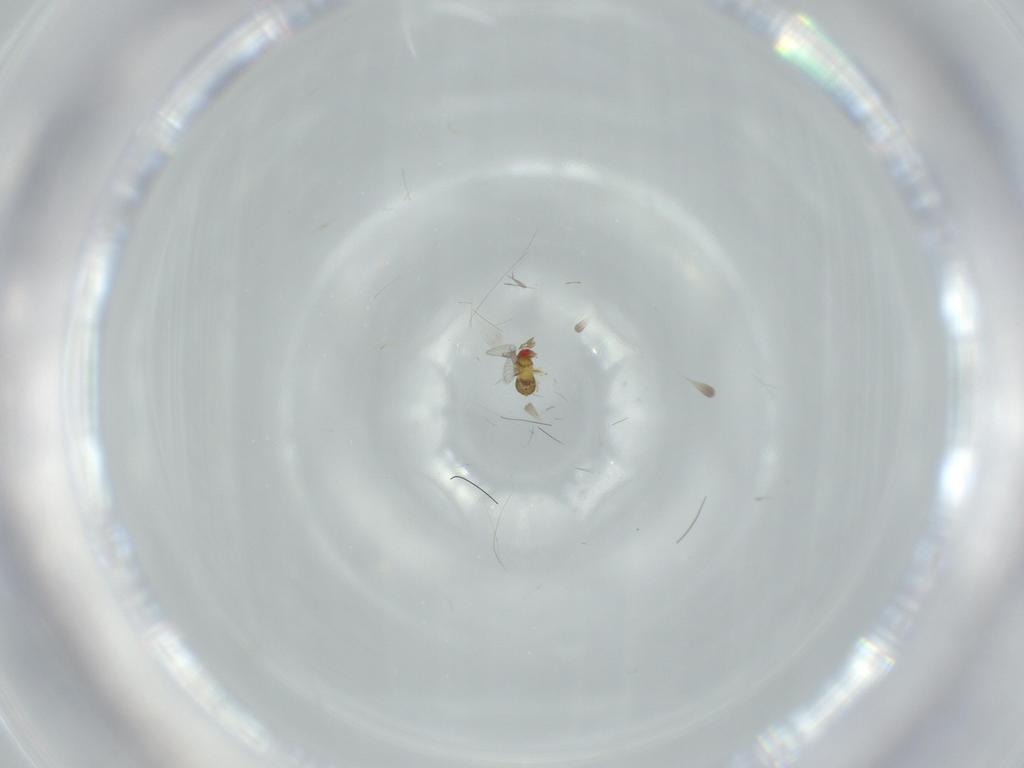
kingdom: Animalia
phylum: Arthropoda
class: Insecta
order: Hymenoptera
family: Trichogrammatidae
